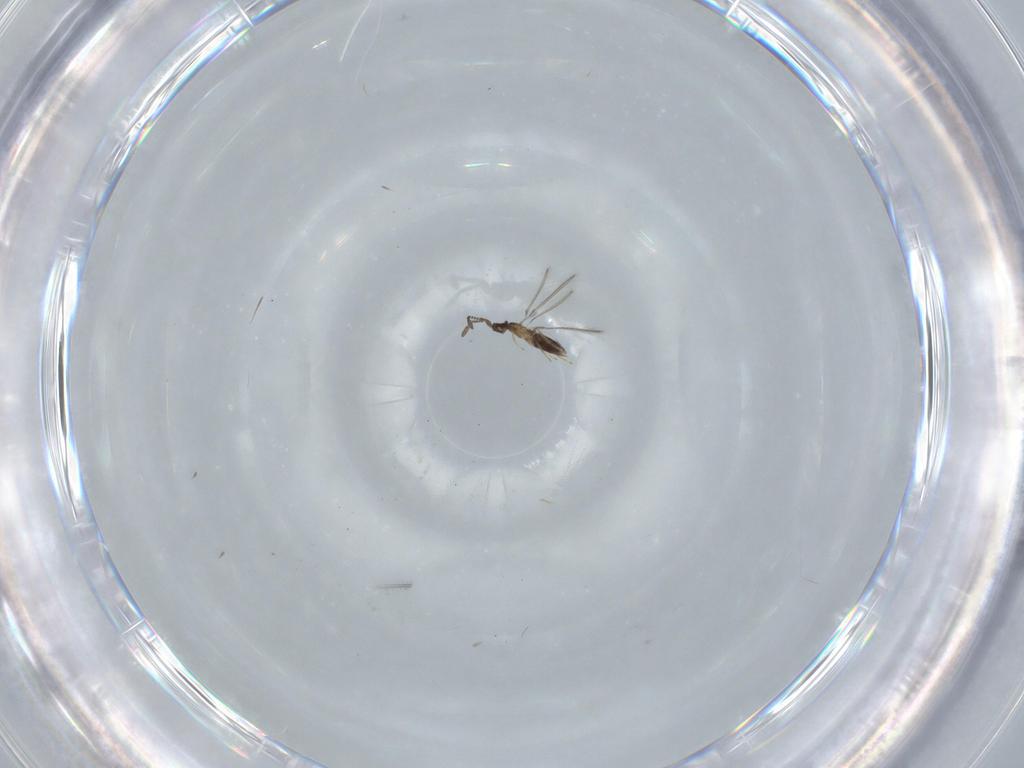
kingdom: Animalia
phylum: Arthropoda
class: Insecta
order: Hymenoptera
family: Mymaridae
